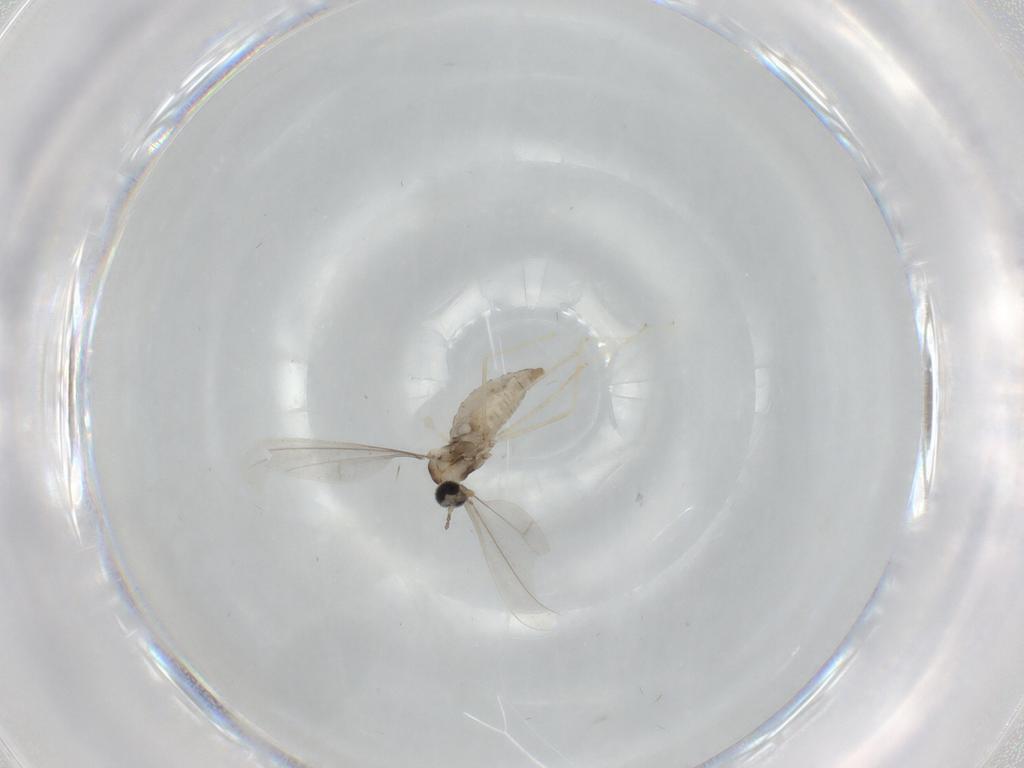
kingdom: Animalia
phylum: Arthropoda
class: Insecta
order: Diptera
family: Cecidomyiidae
